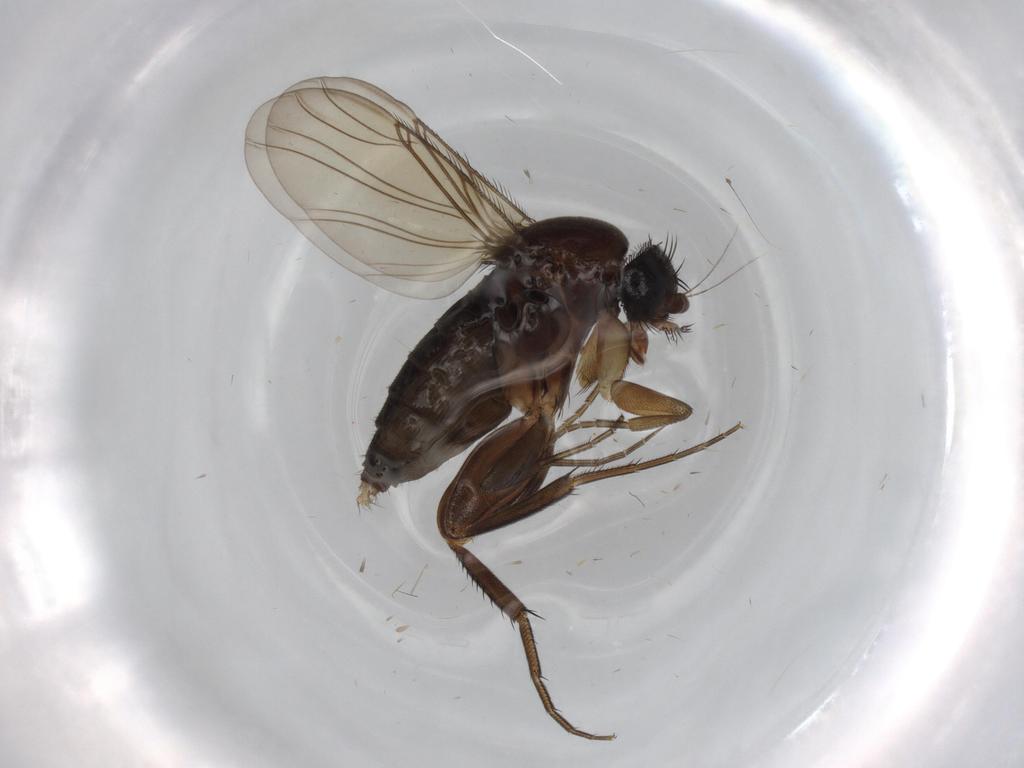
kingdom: Animalia
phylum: Arthropoda
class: Insecta
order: Diptera
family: Phoridae
